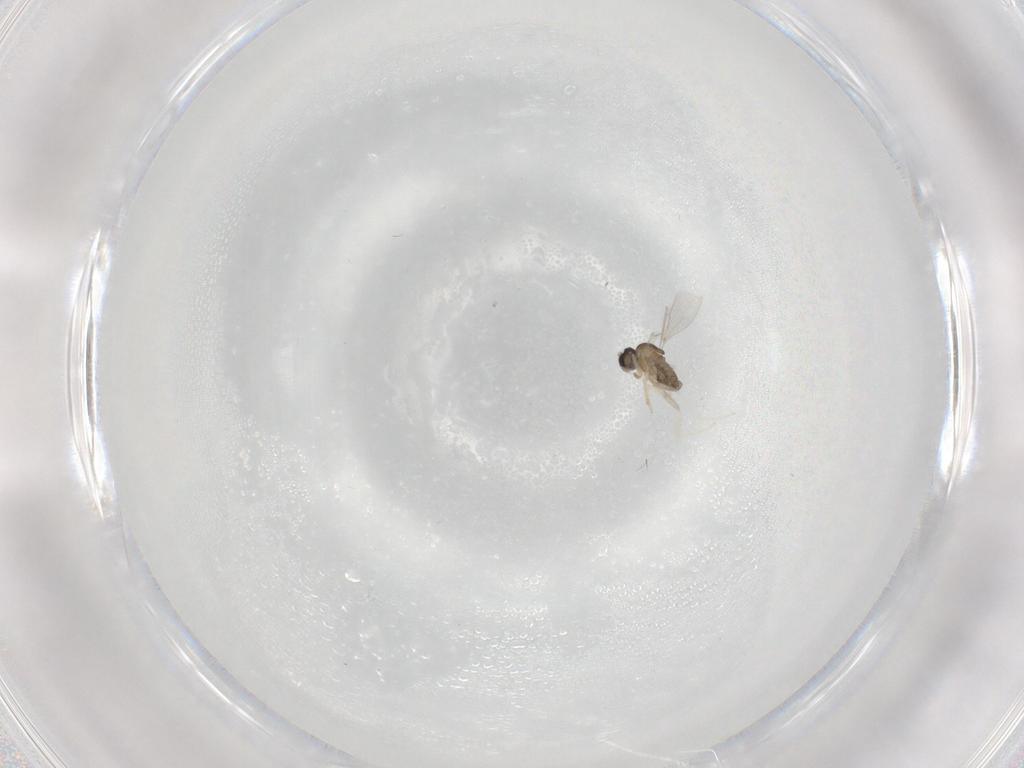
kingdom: Animalia
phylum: Arthropoda
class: Insecta
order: Diptera
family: Cecidomyiidae
